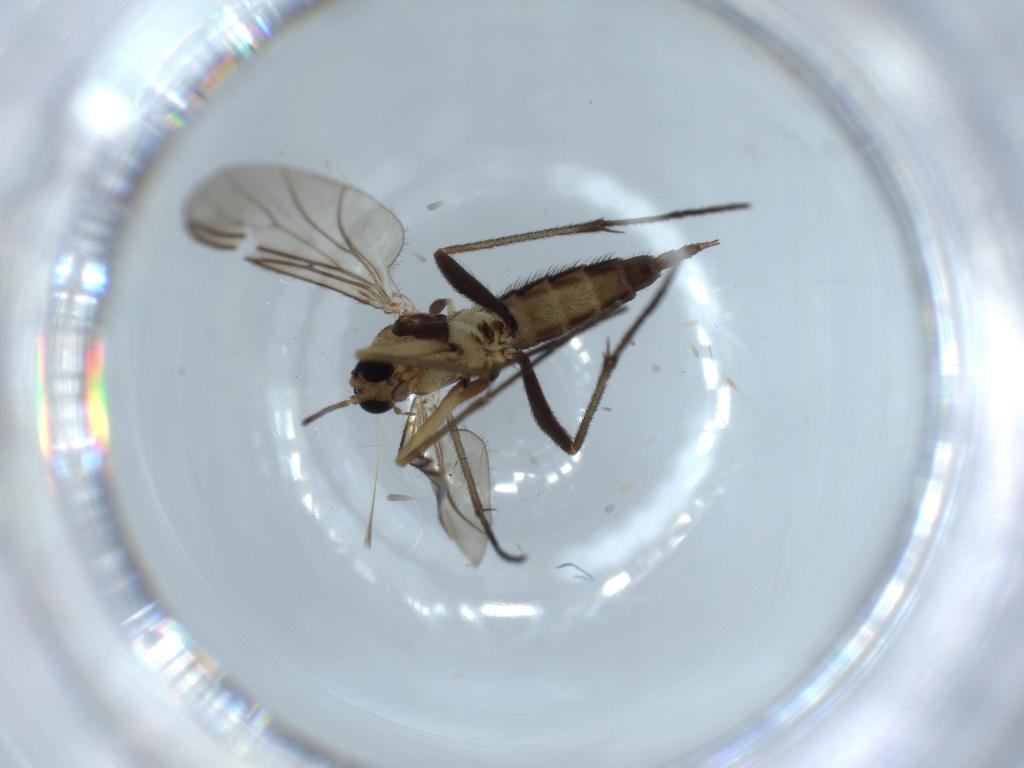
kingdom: Animalia
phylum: Arthropoda
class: Insecta
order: Diptera
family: Sciaridae
